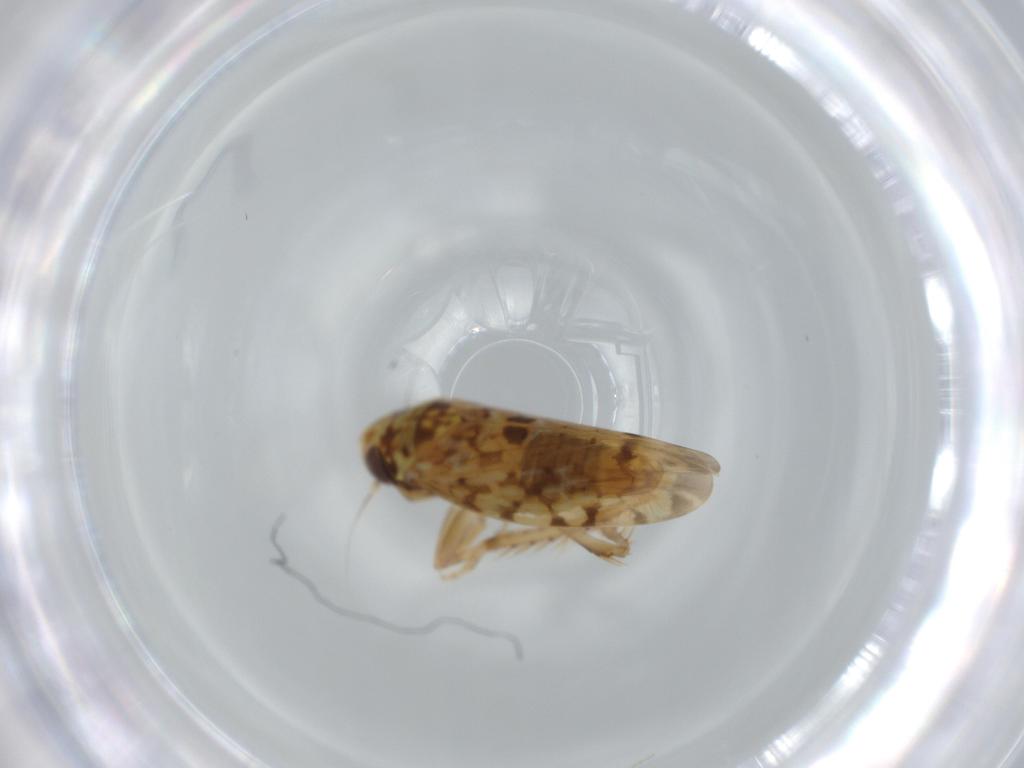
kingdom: Animalia
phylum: Arthropoda
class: Insecta
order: Hemiptera
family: Cicadellidae
